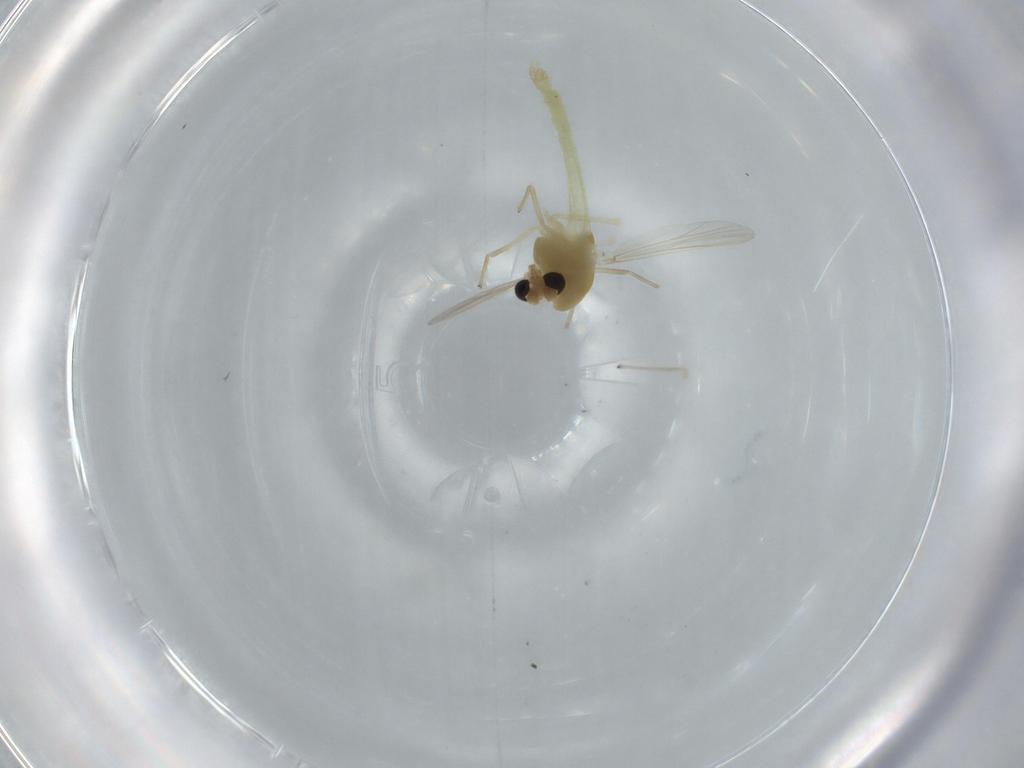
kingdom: Animalia
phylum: Arthropoda
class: Insecta
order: Diptera
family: Chironomidae
